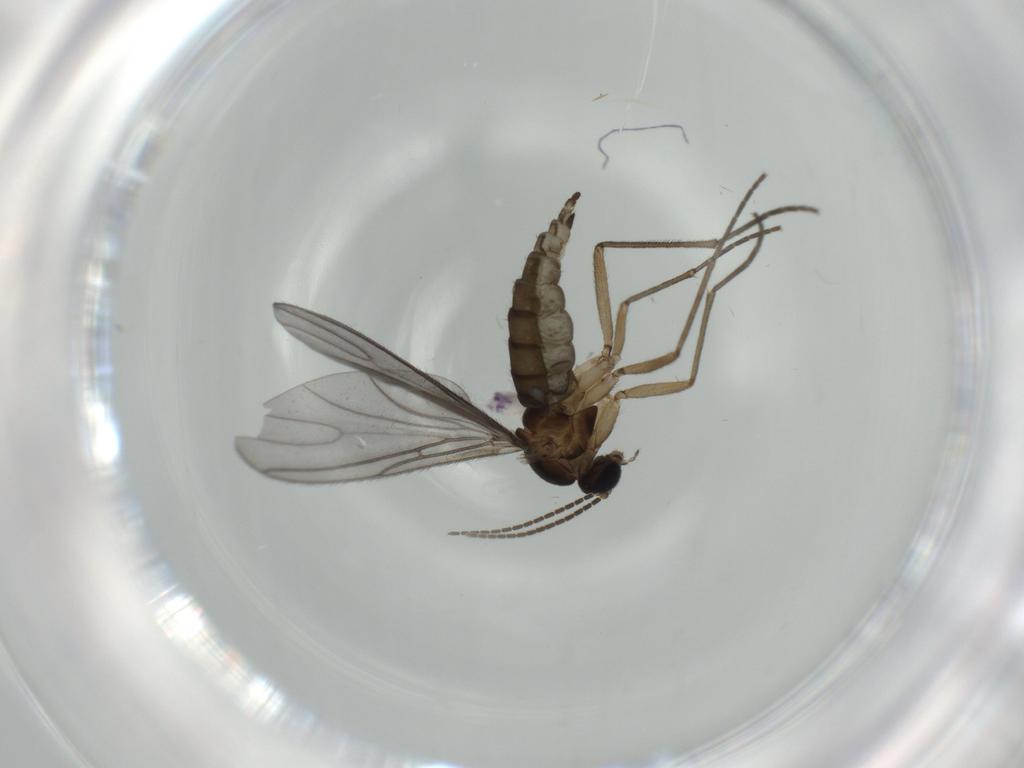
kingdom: Animalia
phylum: Arthropoda
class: Insecta
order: Diptera
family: Sciaridae
